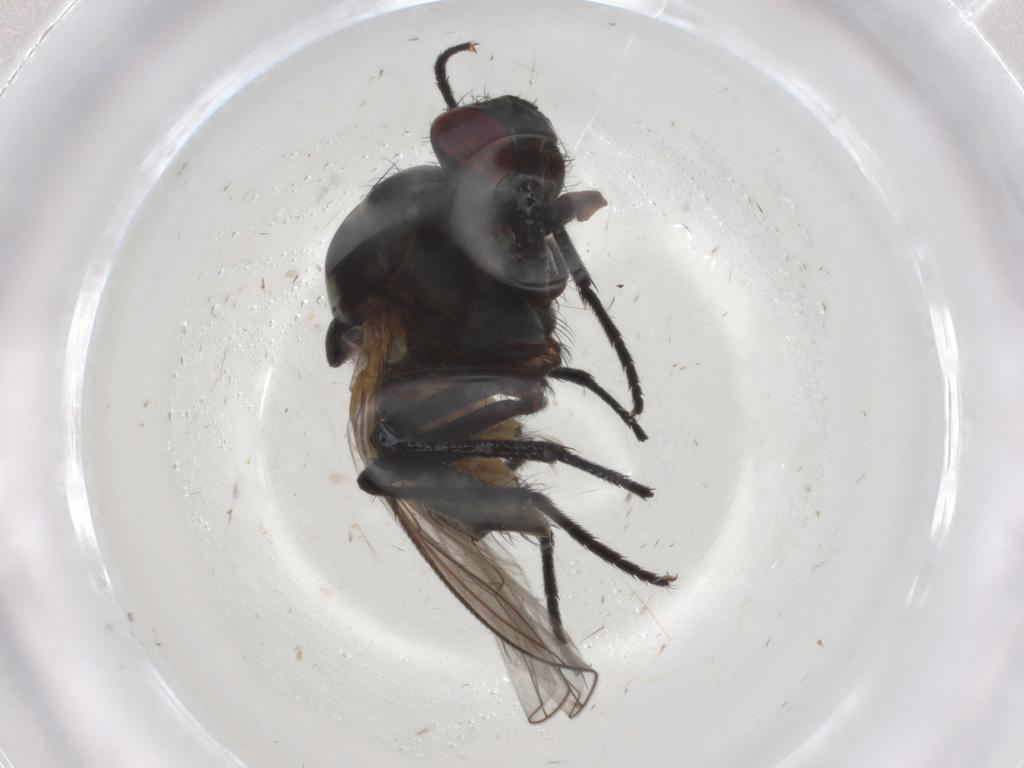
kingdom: Animalia
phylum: Arthropoda
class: Insecta
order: Diptera
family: Anthomyiidae
